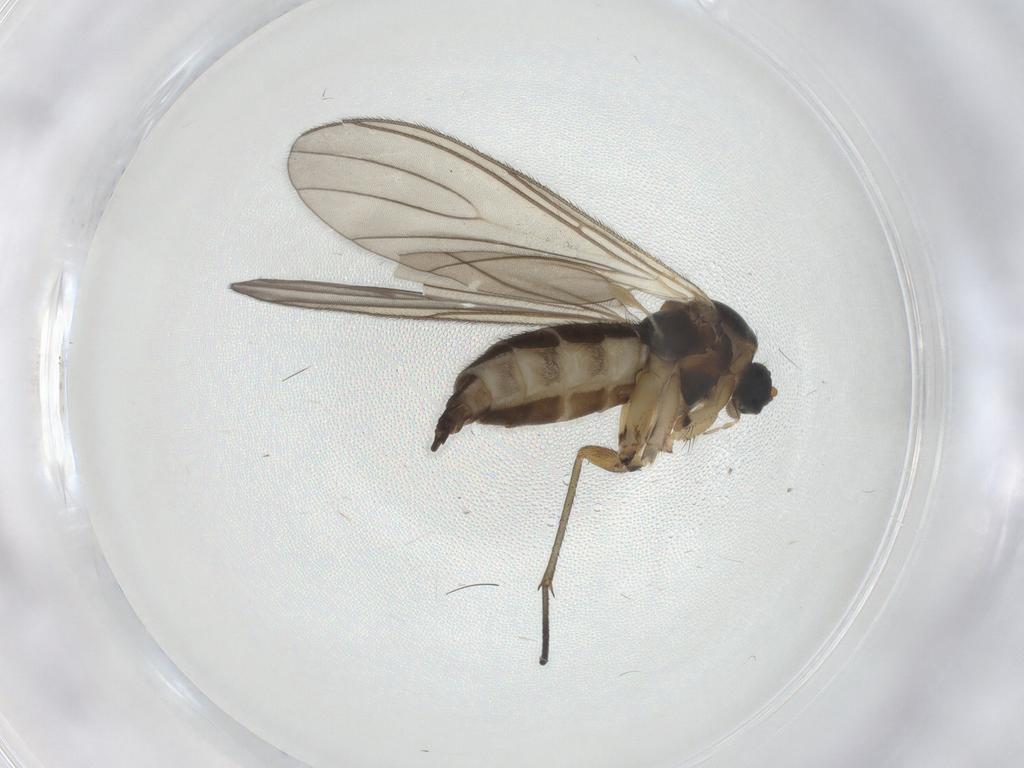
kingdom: Animalia
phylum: Arthropoda
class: Insecta
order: Diptera
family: Sciaridae
